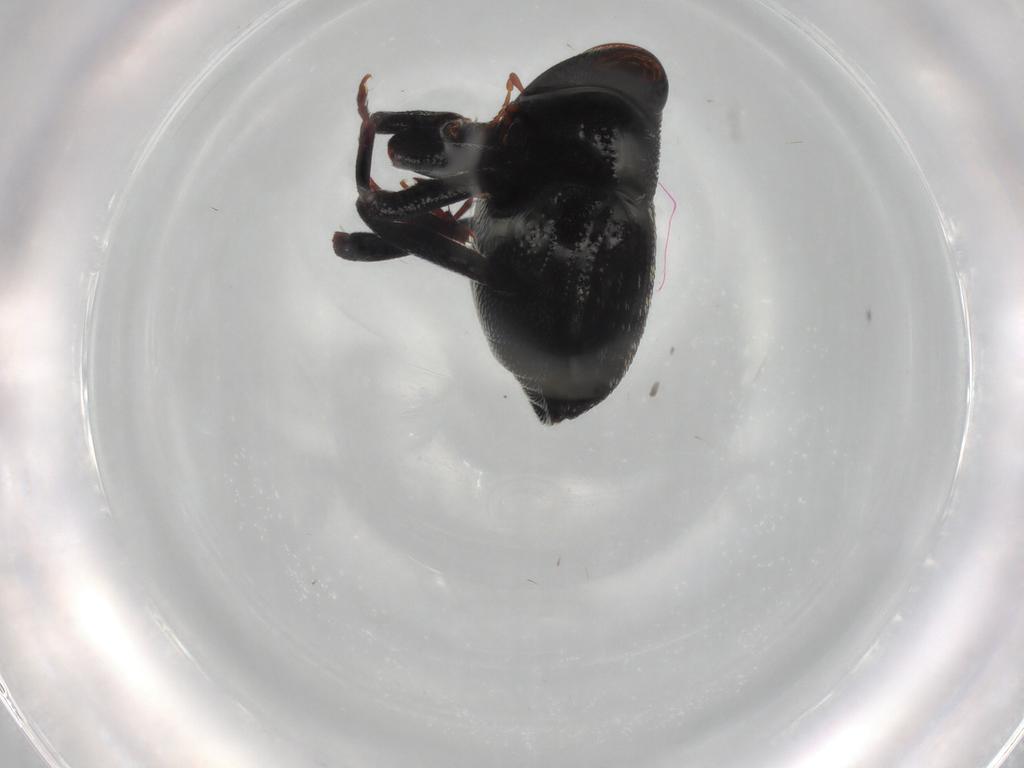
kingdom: Animalia
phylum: Arthropoda
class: Insecta
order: Coleoptera
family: Curculionidae
